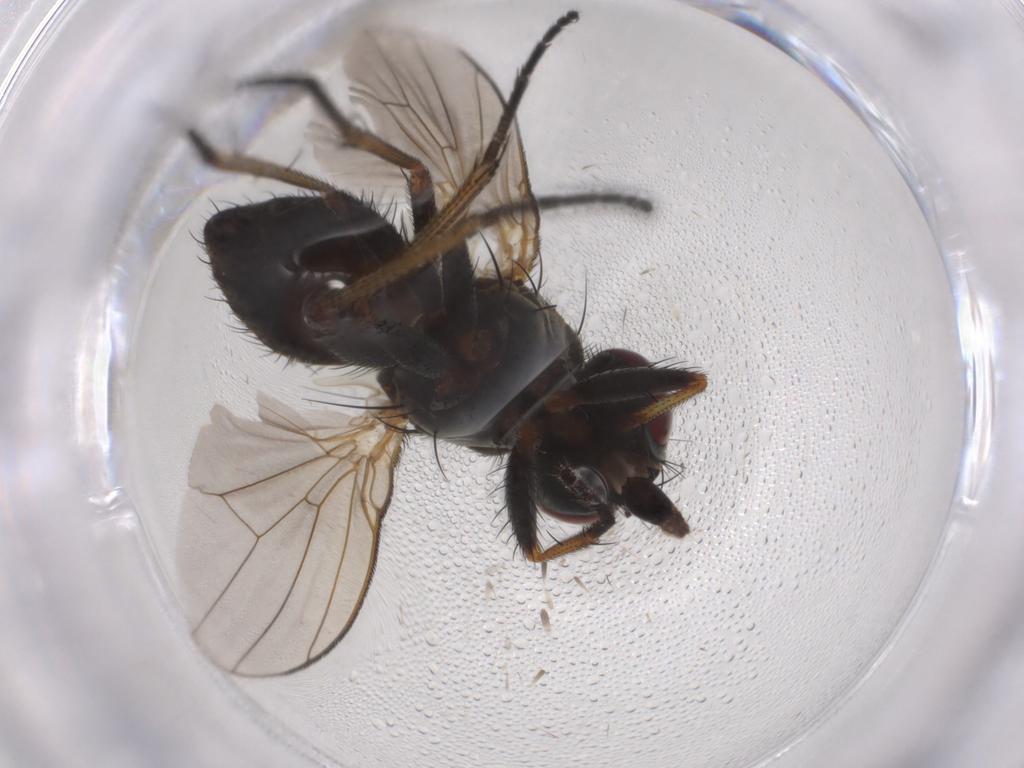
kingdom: Animalia
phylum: Arthropoda
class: Insecta
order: Diptera
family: Muscidae
